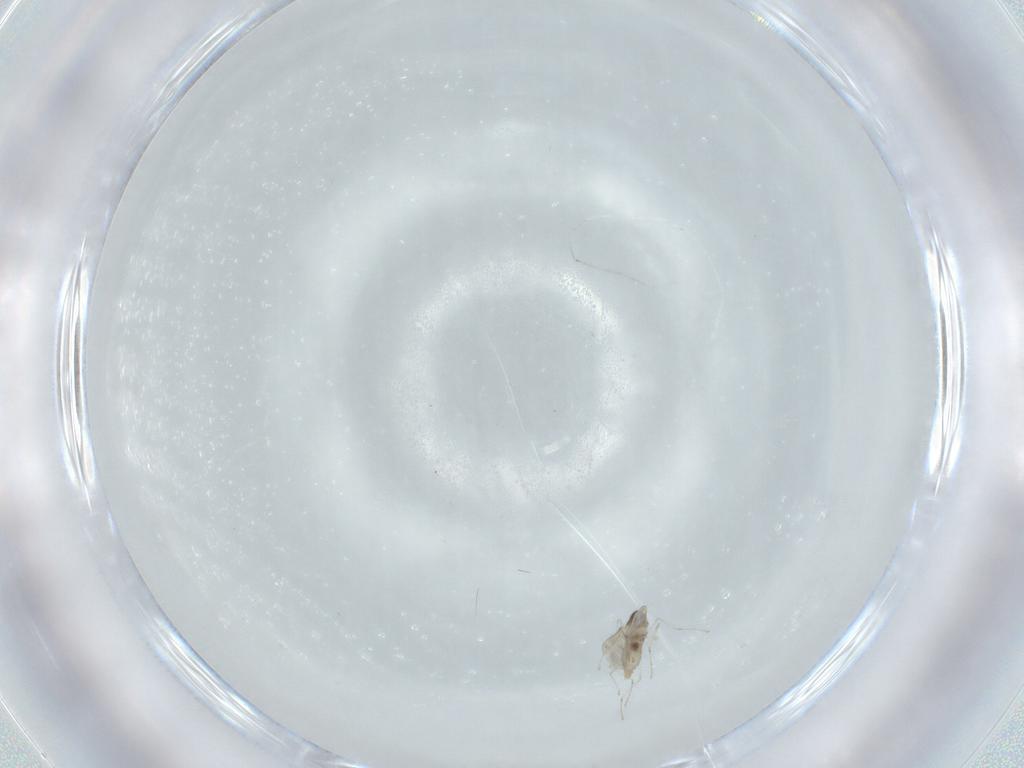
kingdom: Animalia
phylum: Arthropoda
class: Insecta
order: Diptera
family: Cecidomyiidae
